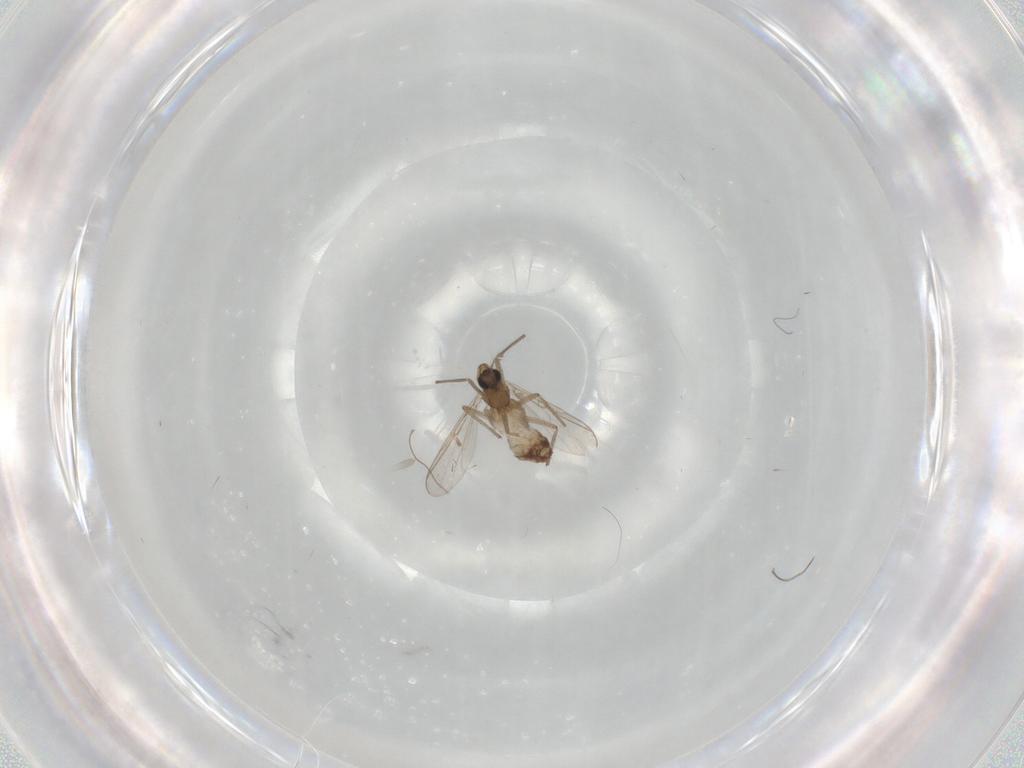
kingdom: Animalia
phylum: Arthropoda
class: Insecta
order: Diptera
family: Chironomidae
